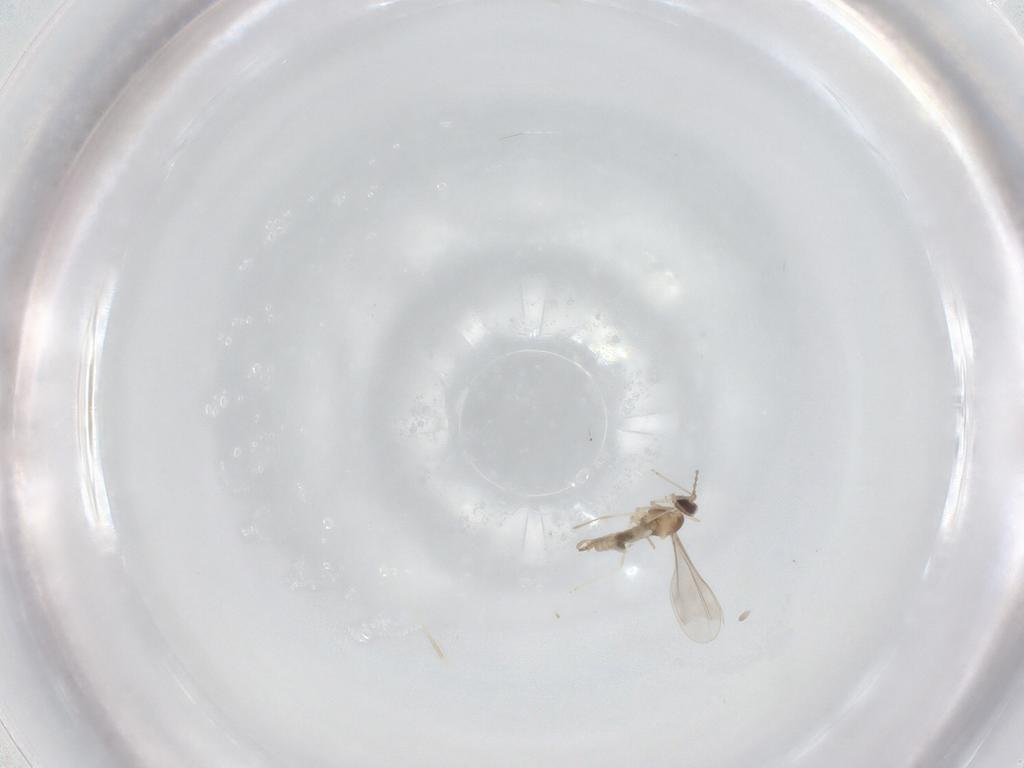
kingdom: Animalia
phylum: Arthropoda
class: Insecta
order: Diptera
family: Cecidomyiidae
